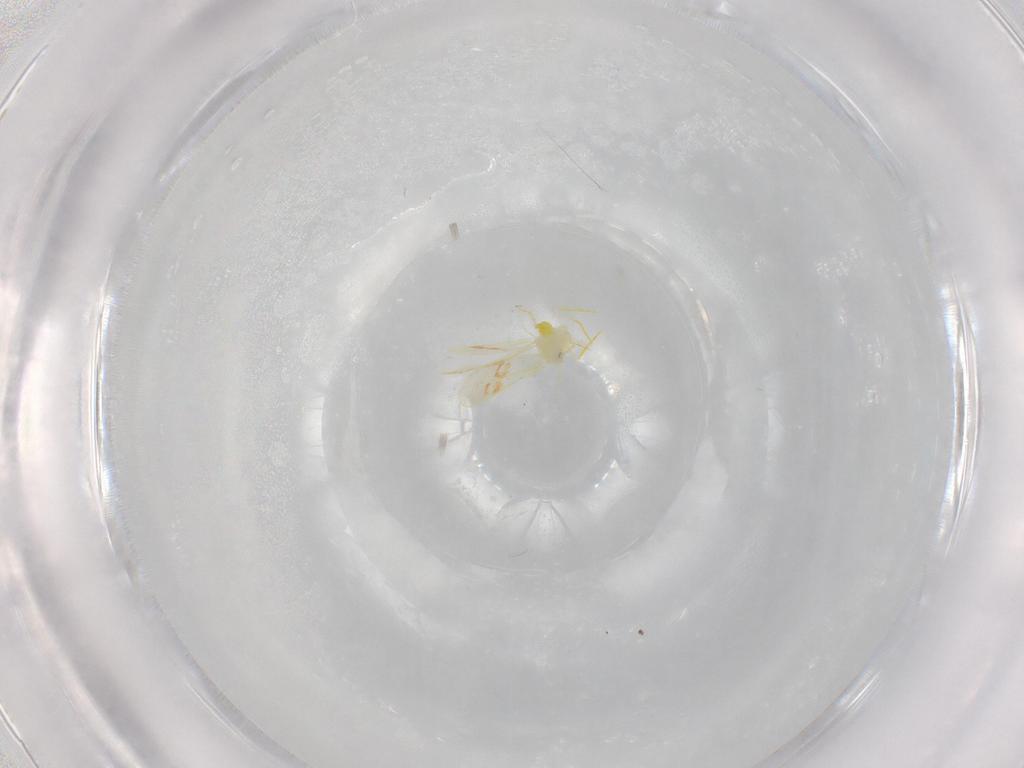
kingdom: Animalia
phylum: Arthropoda
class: Insecta
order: Hemiptera
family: Aleyrodidae
